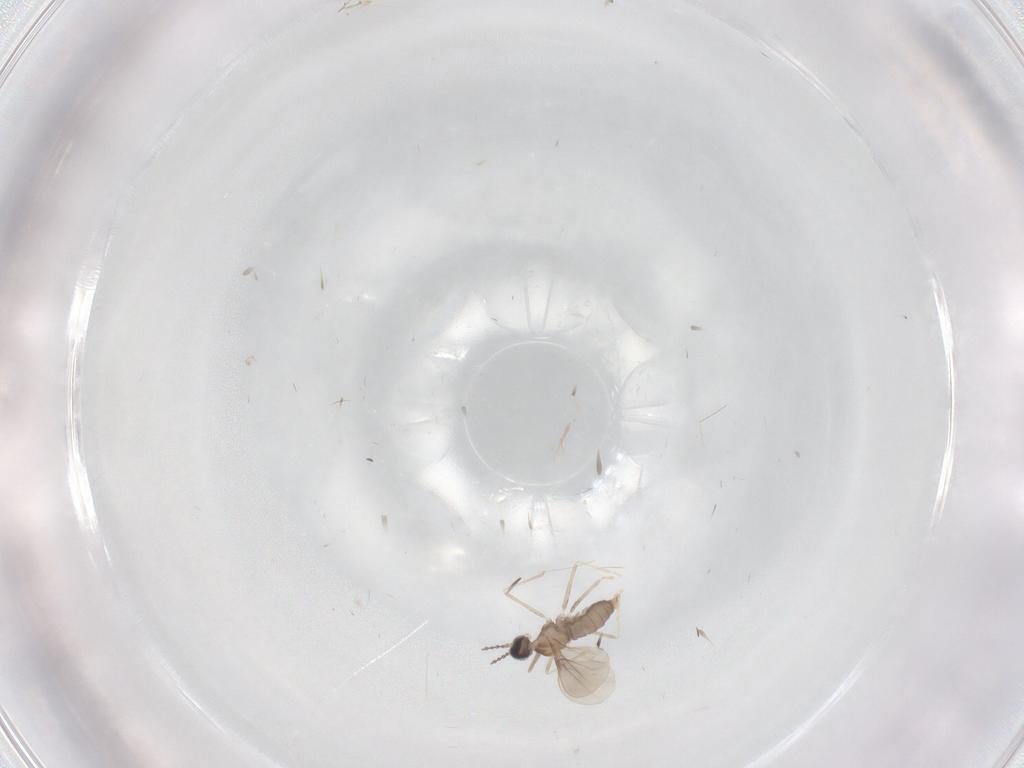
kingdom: Animalia
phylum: Arthropoda
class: Insecta
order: Diptera
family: Phoridae
